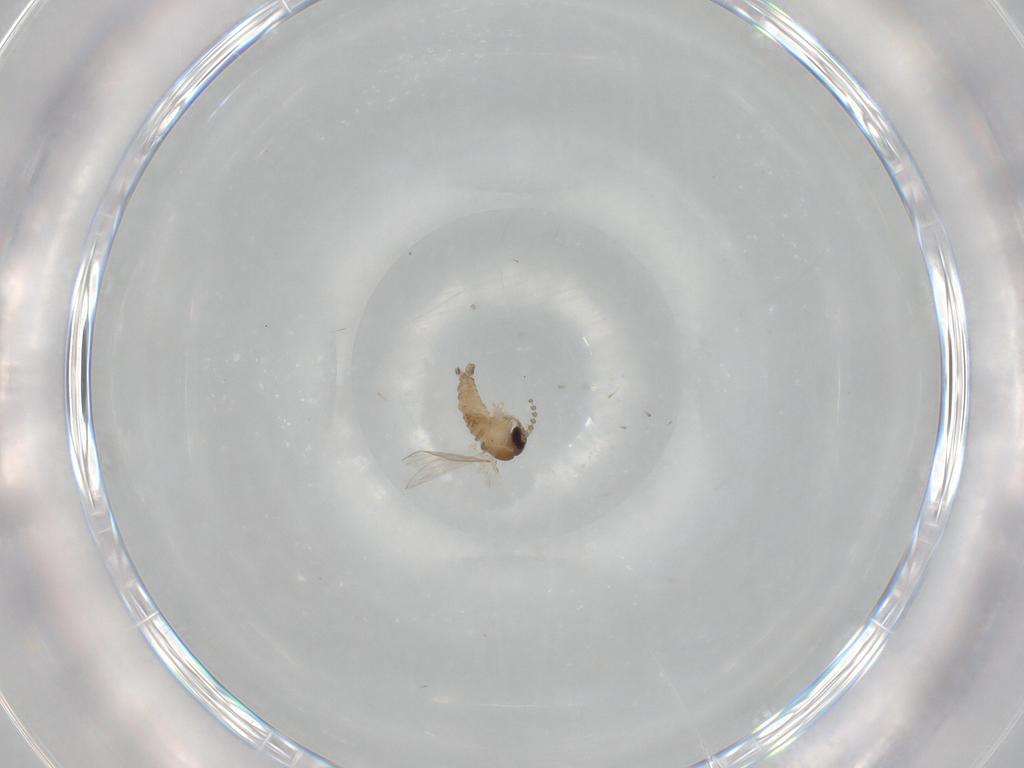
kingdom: Animalia
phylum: Arthropoda
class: Insecta
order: Diptera
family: Psychodidae
